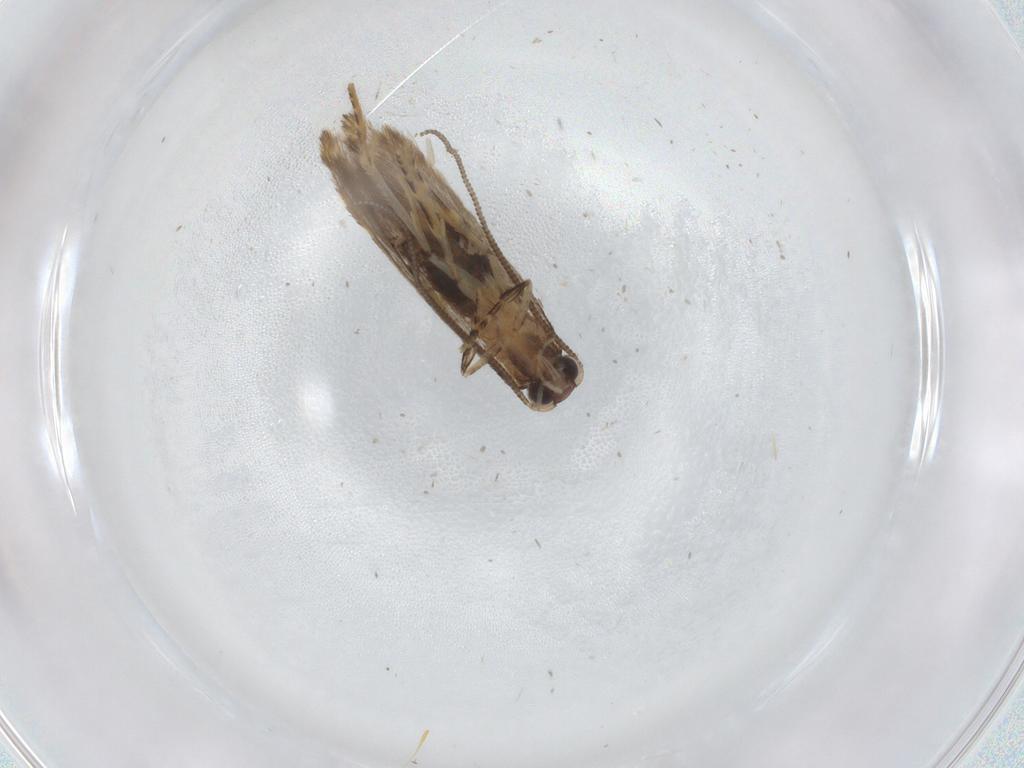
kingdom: Animalia
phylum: Arthropoda
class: Insecta
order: Lepidoptera
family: Tineidae
